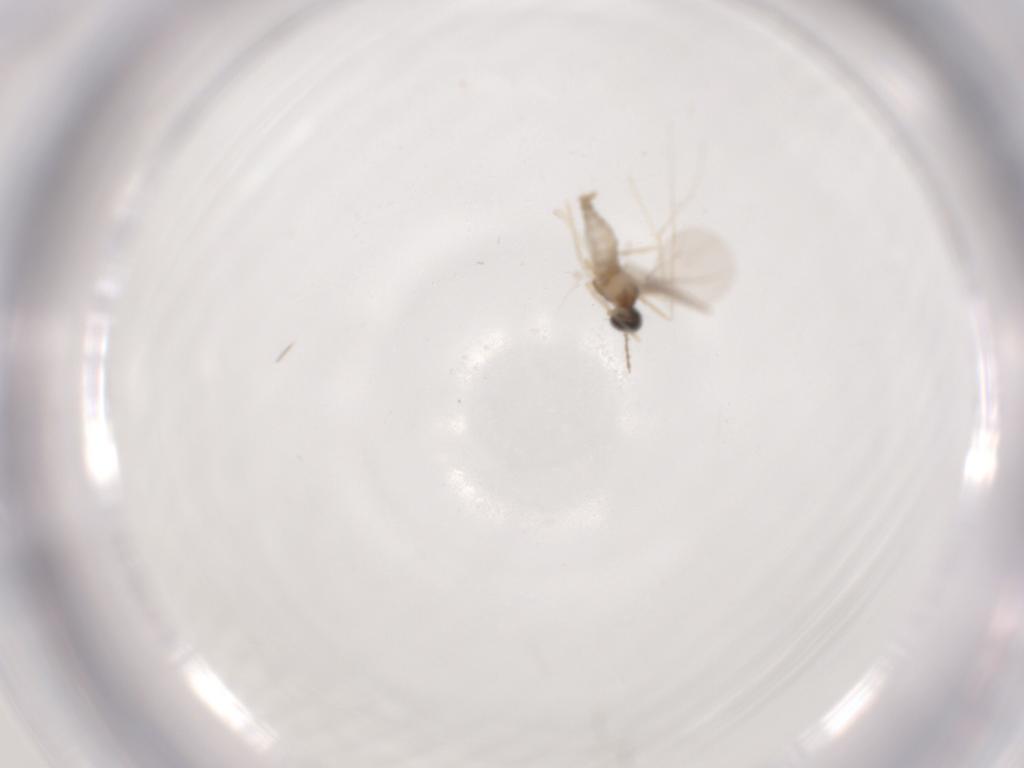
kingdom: Animalia
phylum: Arthropoda
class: Insecta
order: Diptera
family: Cecidomyiidae
